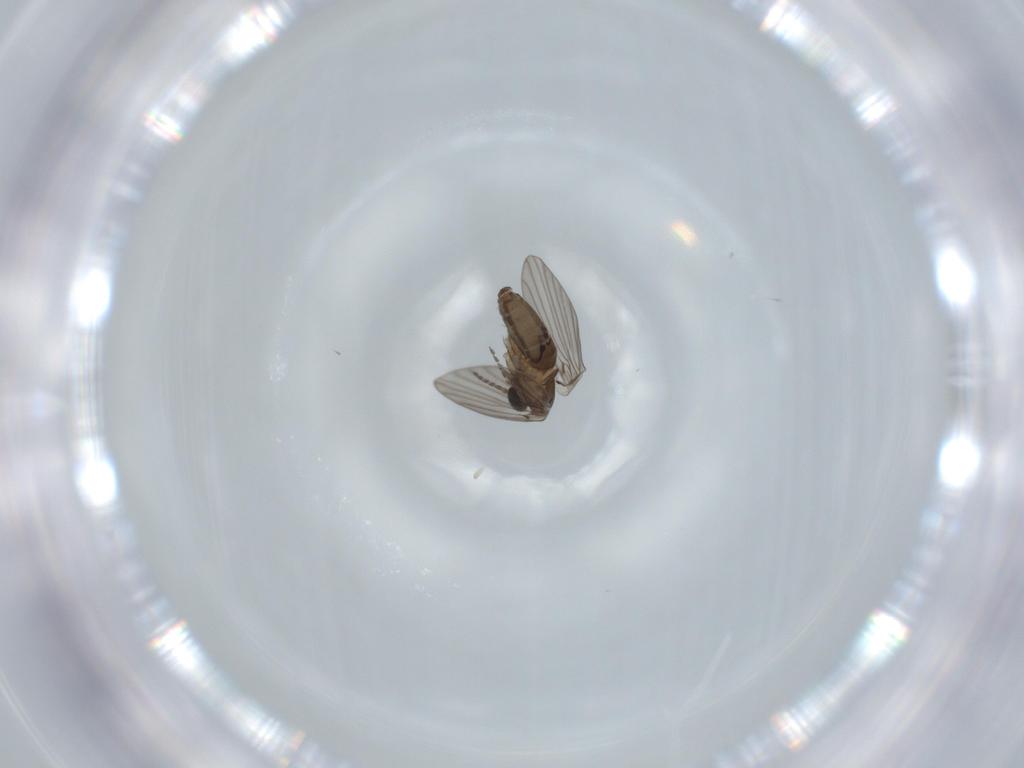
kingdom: Animalia
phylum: Arthropoda
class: Insecta
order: Diptera
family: Psychodidae
